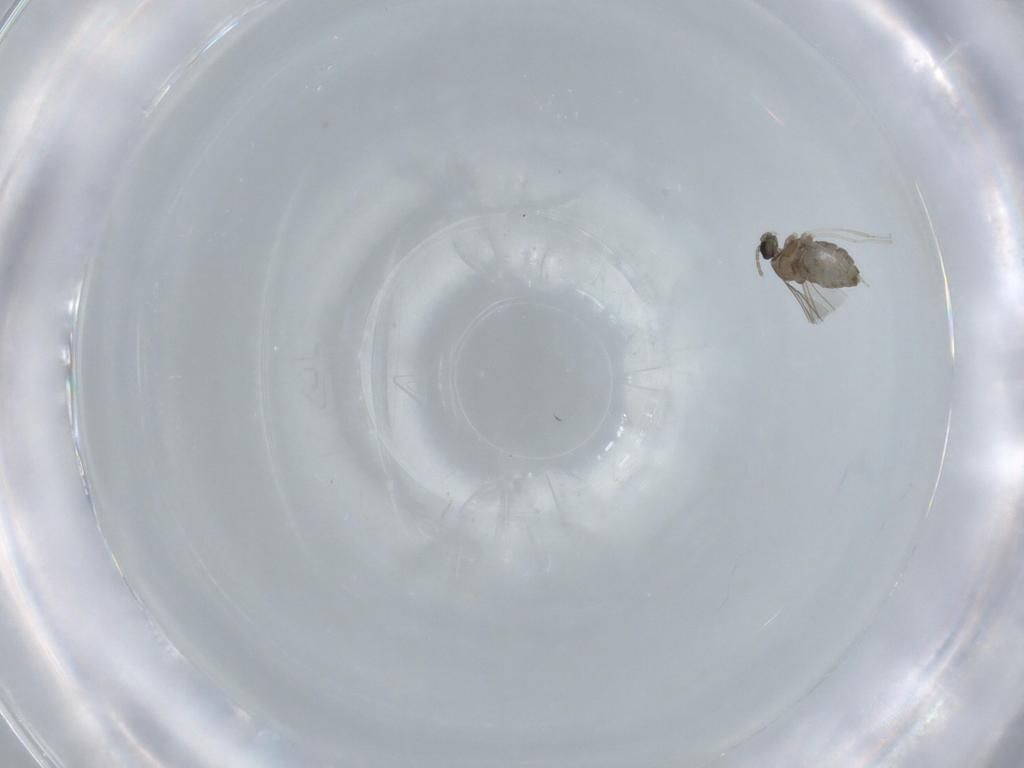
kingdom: Animalia
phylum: Arthropoda
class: Insecta
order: Diptera
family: Cecidomyiidae
